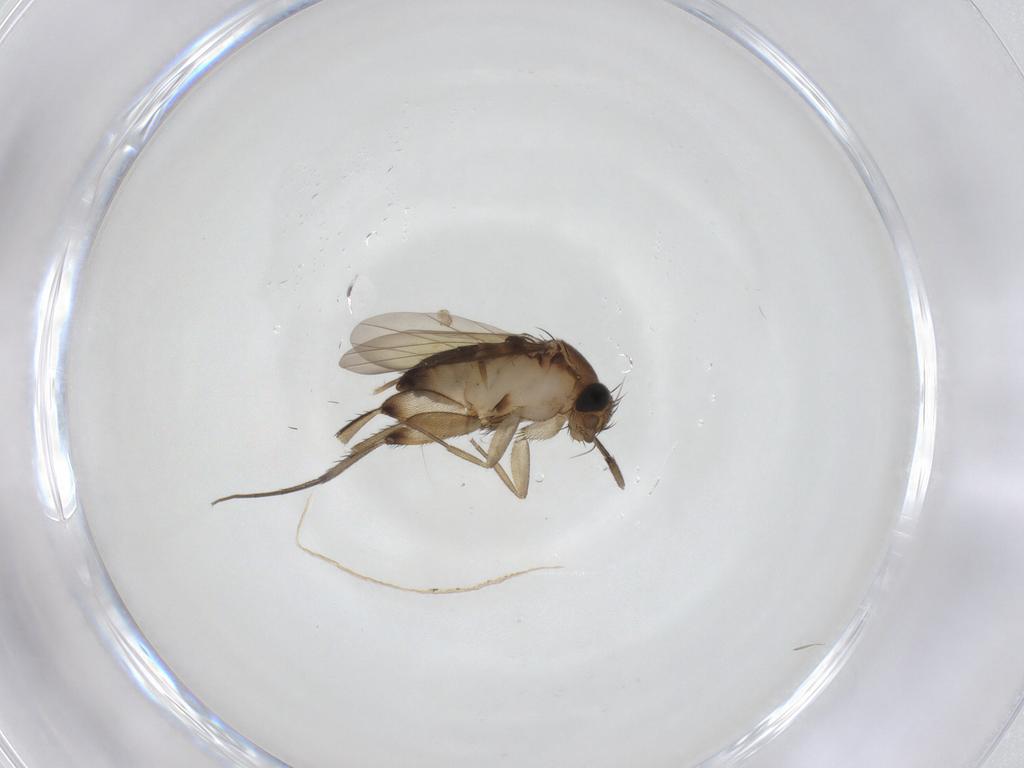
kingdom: Animalia
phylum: Arthropoda
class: Insecta
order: Diptera
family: Phoridae
